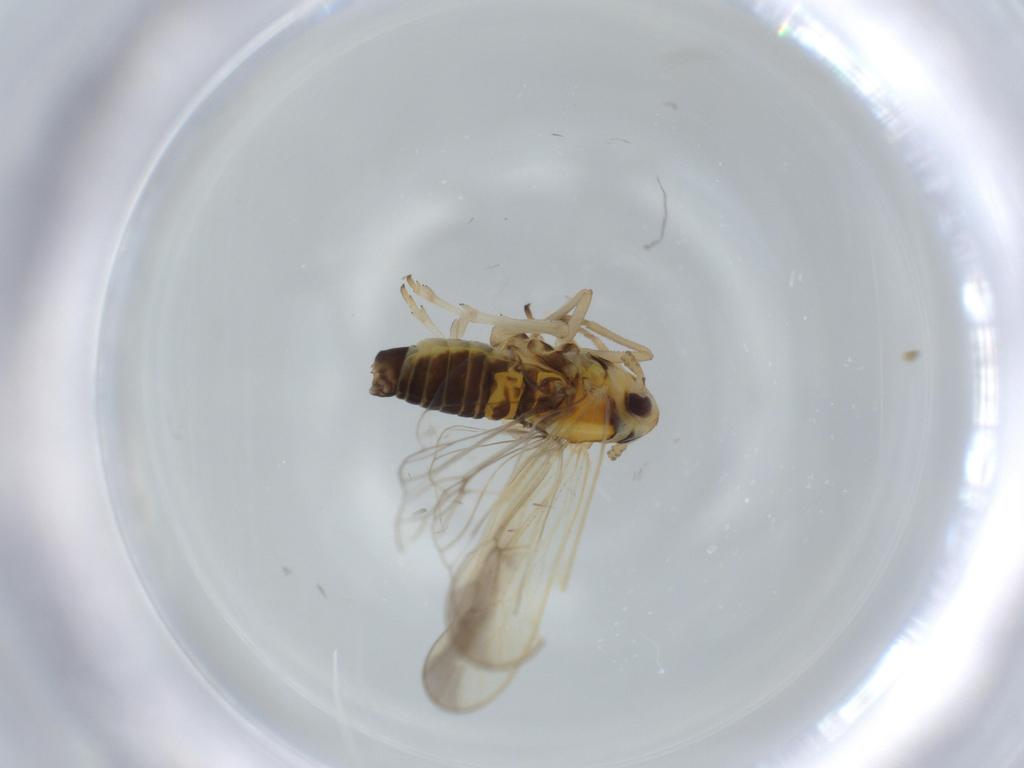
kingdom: Animalia
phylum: Arthropoda
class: Insecta
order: Hemiptera
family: Delphacidae
